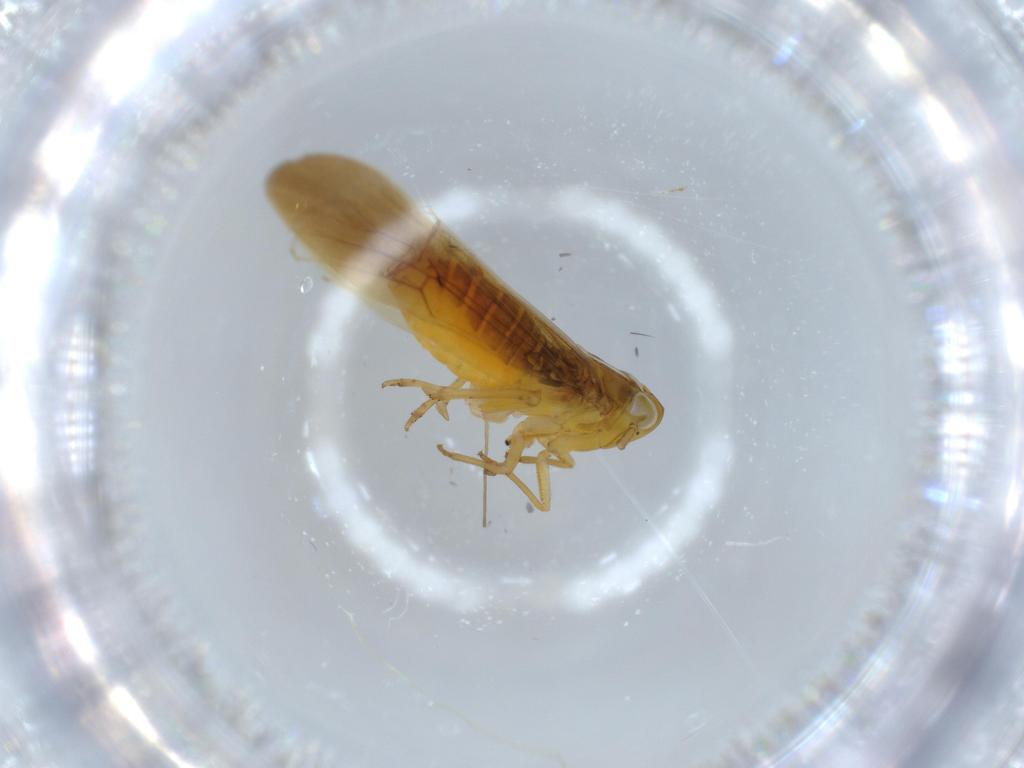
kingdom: Animalia
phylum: Arthropoda
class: Insecta
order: Hemiptera
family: Delphacidae
